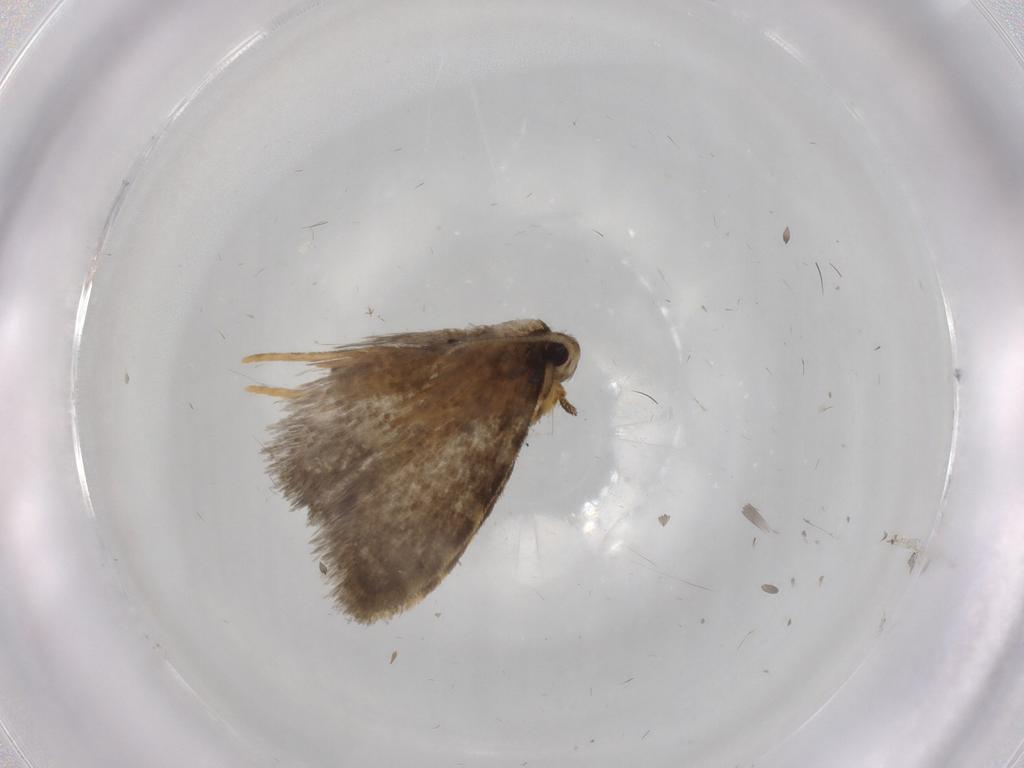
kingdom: Animalia
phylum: Arthropoda
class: Insecta
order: Lepidoptera
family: Psychidae
